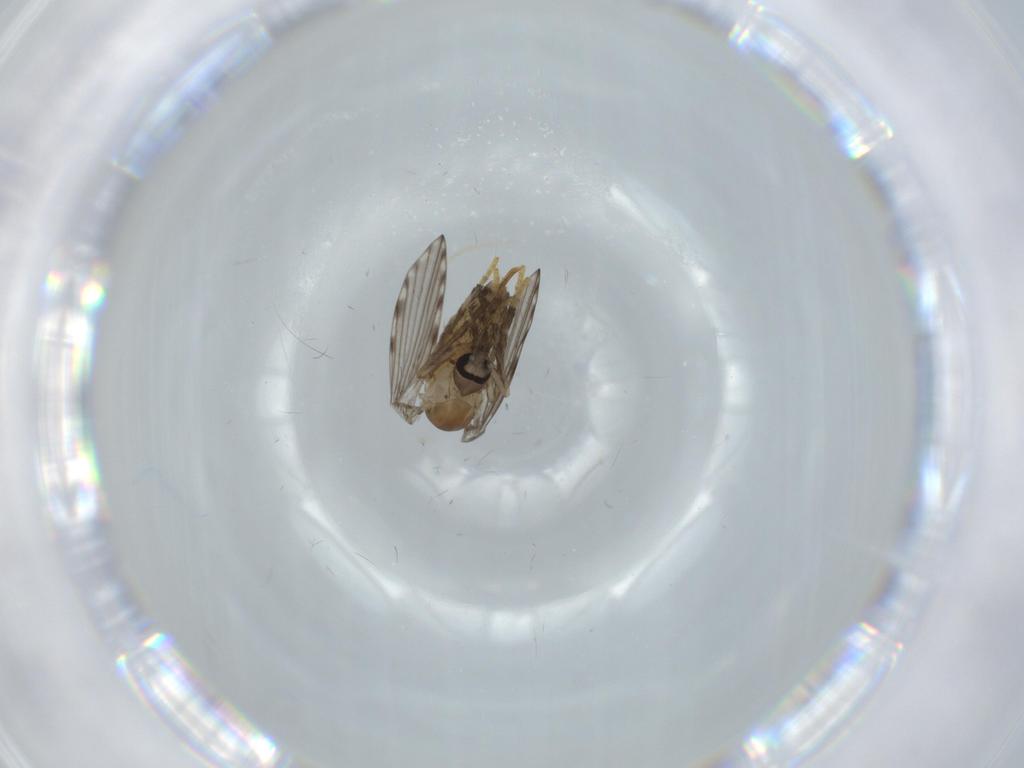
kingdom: Animalia
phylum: Arthropoda
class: Insecta
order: Diptera
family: Psychodidae
